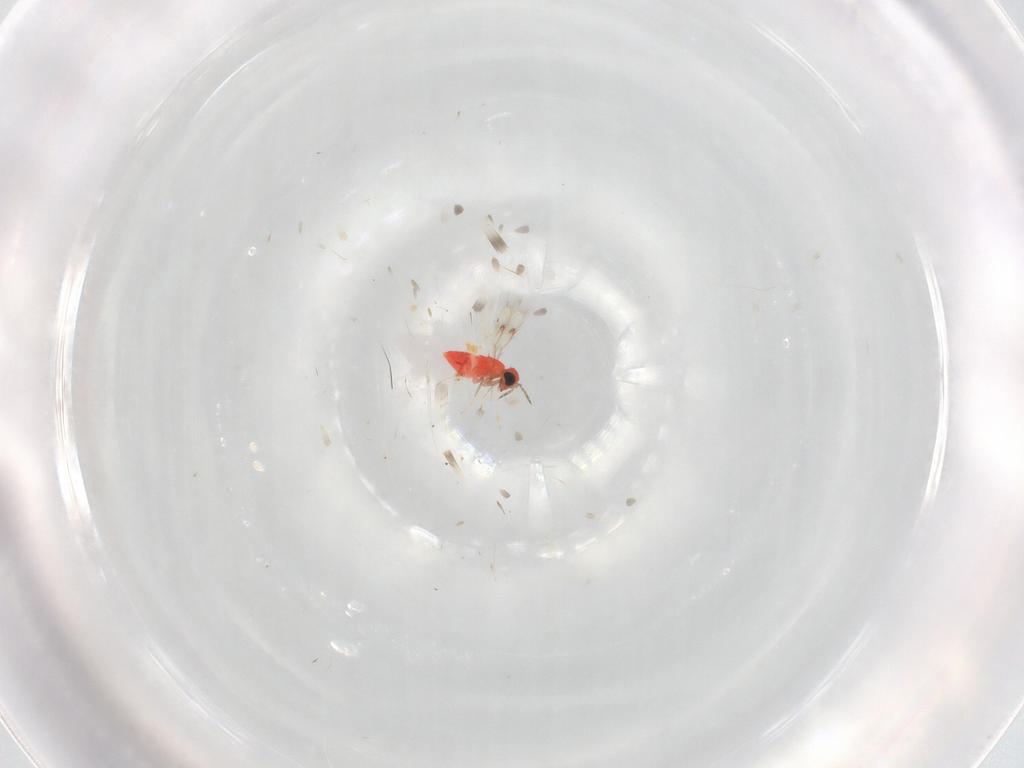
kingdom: Animalia
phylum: Arthropoda
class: Insecta
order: Hymenoptera
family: Trichogrammatidae
